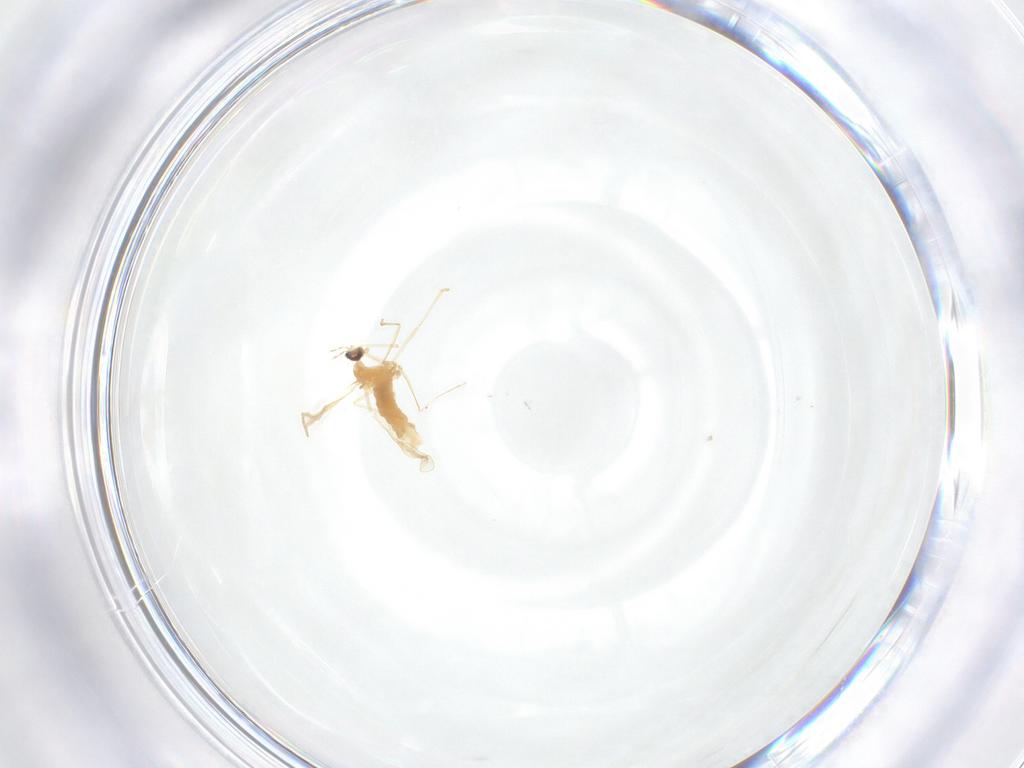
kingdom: Animalia
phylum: Arthropoda
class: Insecta
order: Diptera
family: Cecidomyiidae
